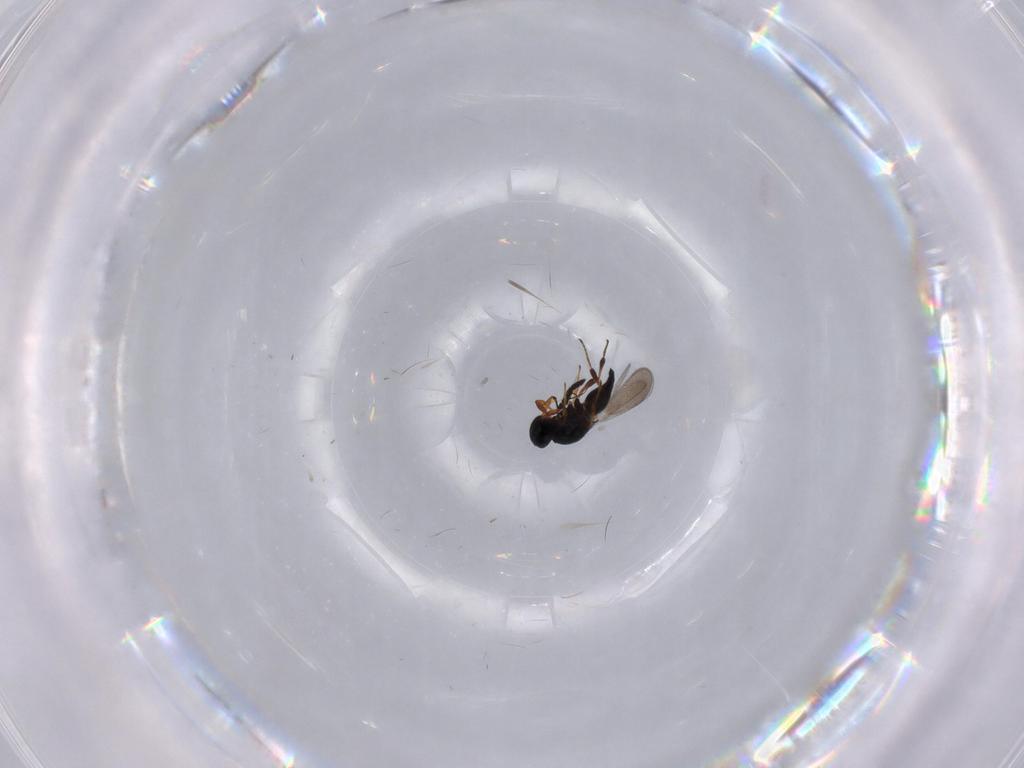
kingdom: Animalia
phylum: Arthropoda
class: Insecta
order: Hymenoptera
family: Platygastridae
